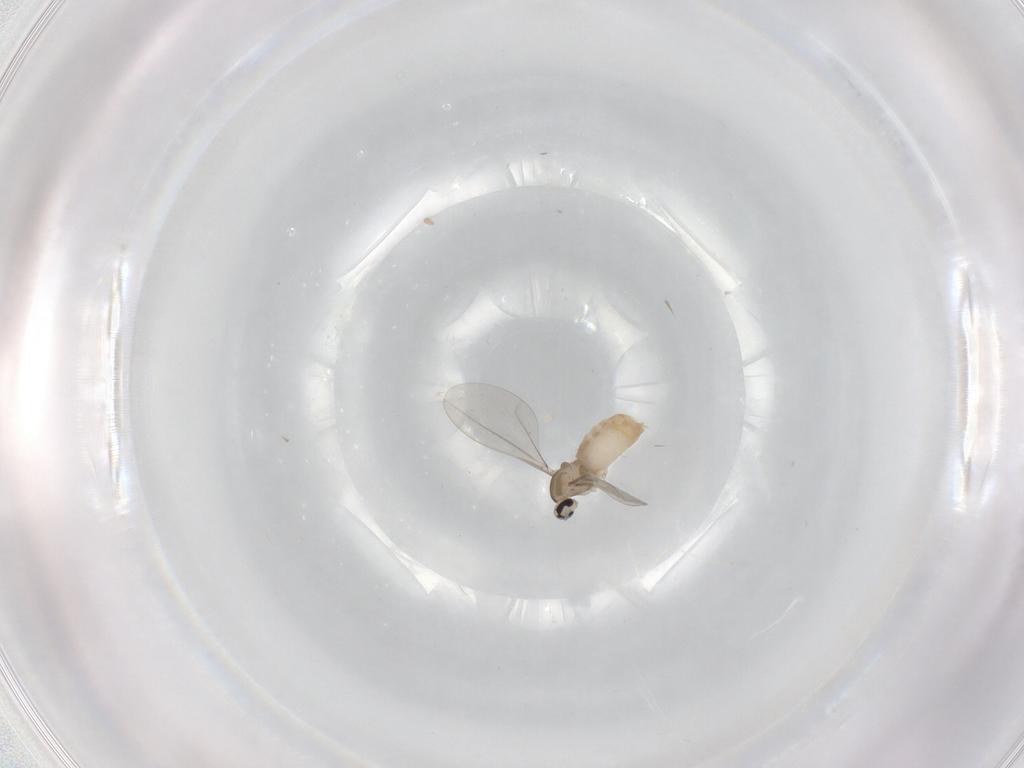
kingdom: Animalia
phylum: Arthropoda
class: Insecta
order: Diptera
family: Cecidomyiidae
